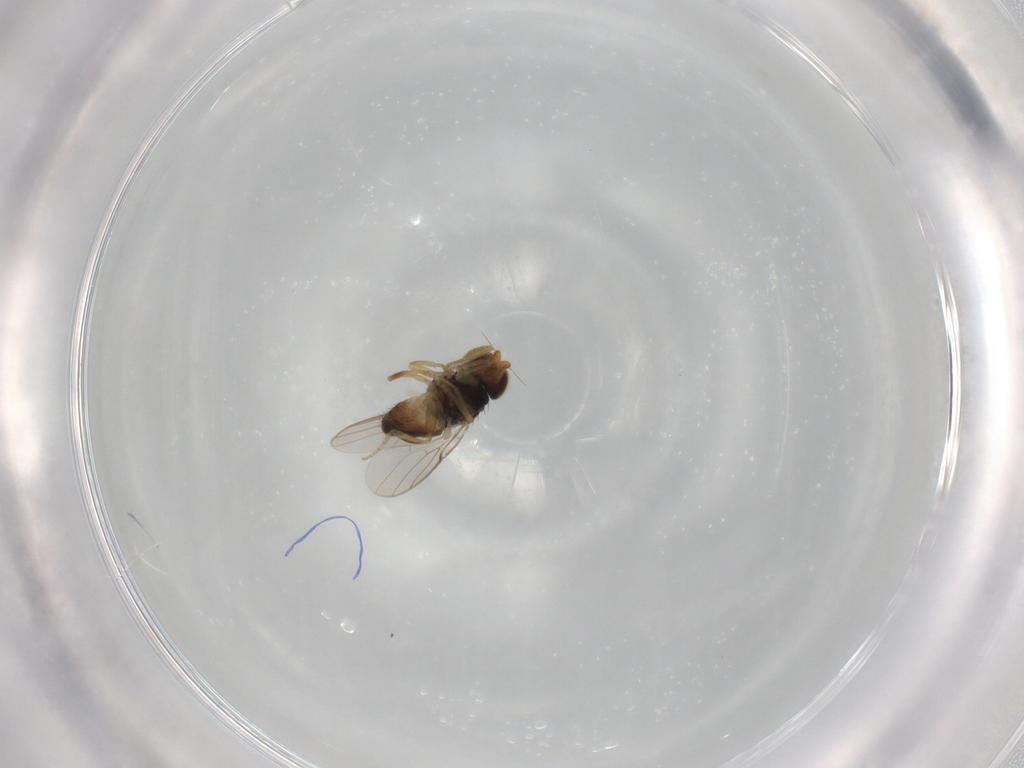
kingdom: Animalia
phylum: Arthropoda
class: Insecta
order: Diptera
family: Chloropidae
